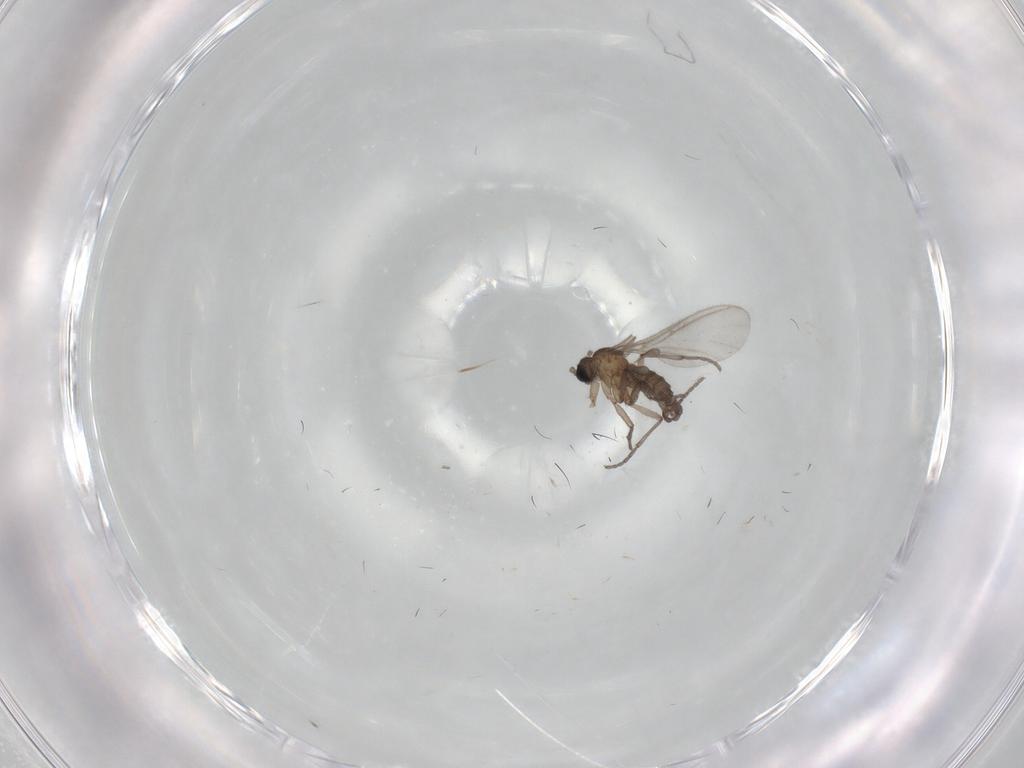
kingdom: Animalia
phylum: Arthropoda
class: Insecta
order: Diptera
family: Sciaridae
